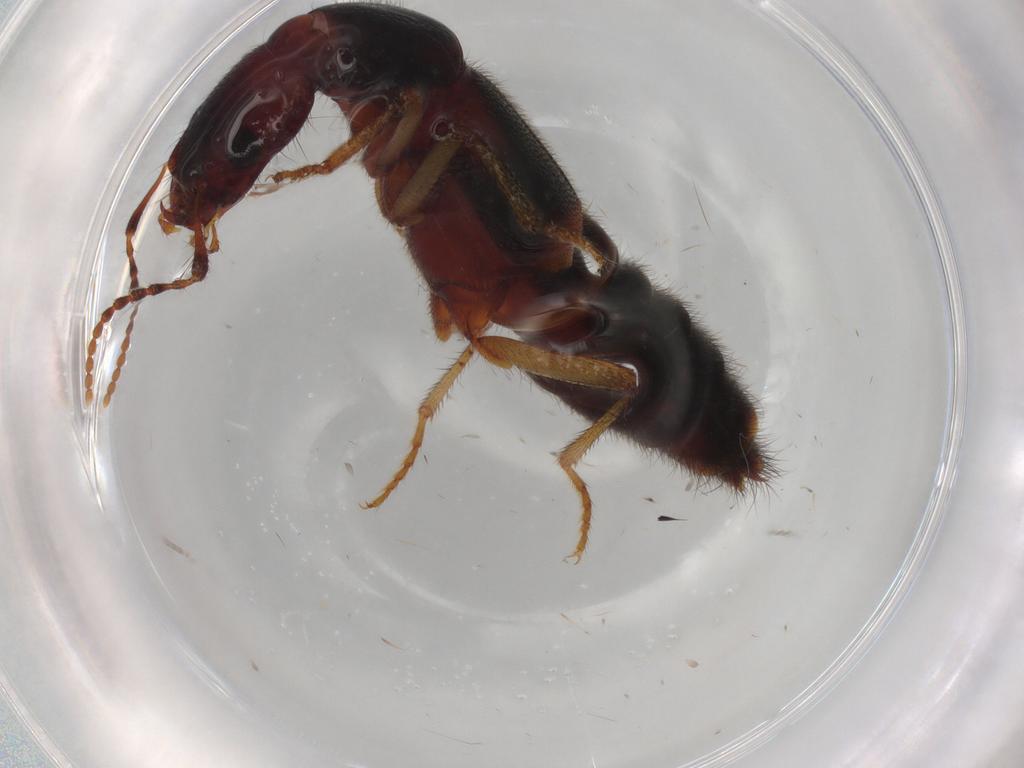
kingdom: Animalia
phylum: Arthropoda
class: Insecta
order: Coleoptera
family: Staphylinidae
